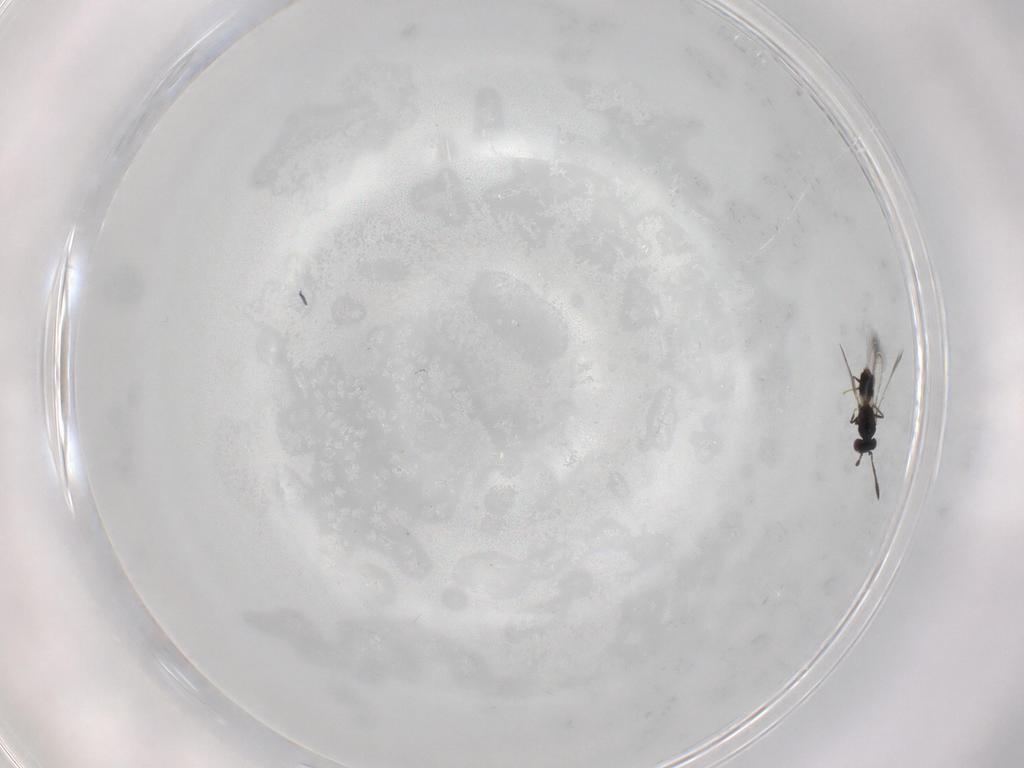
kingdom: Animalia
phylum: Arthropoda
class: Insecta
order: Hymenoptera
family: Mymaridae
